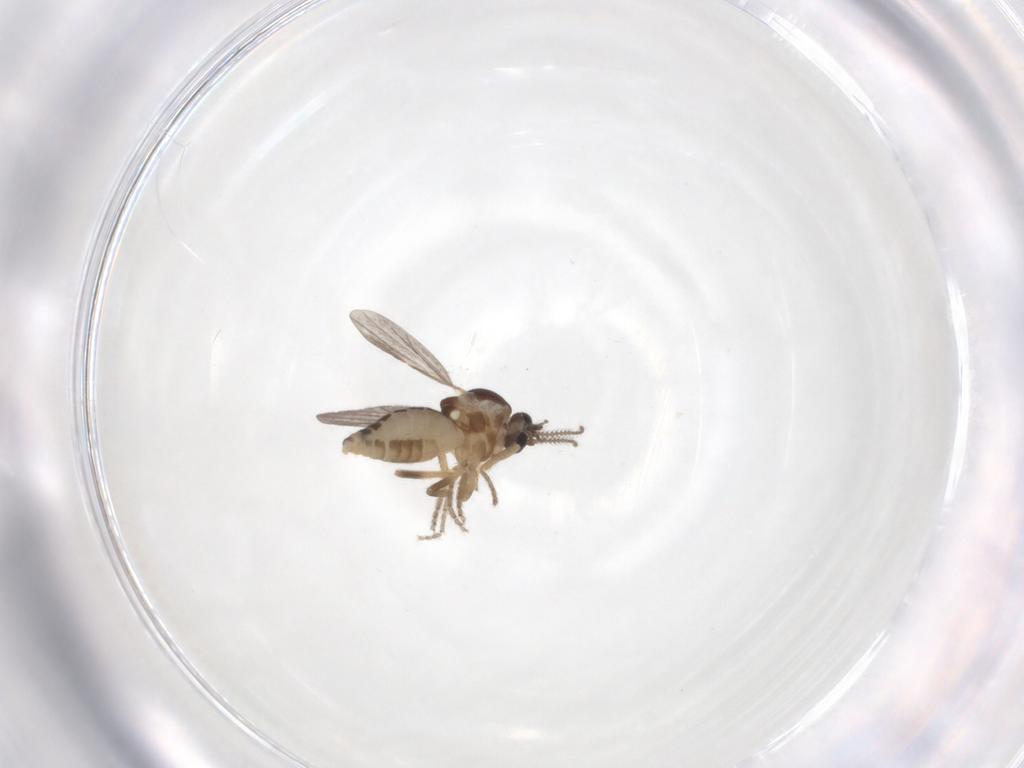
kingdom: Animalia
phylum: Arthropoda
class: Insecta
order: Diptera
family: Ceratopogonidae
